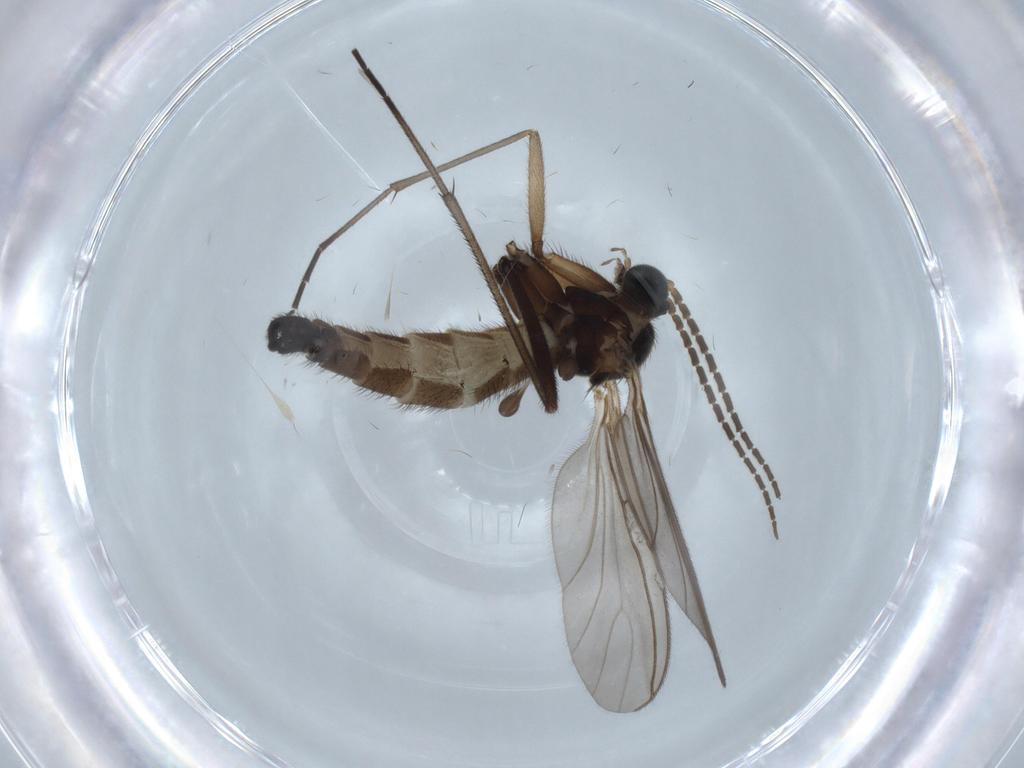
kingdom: Animalia
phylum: Arthropoda
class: Insecta
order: Diptera
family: Sciaridae
